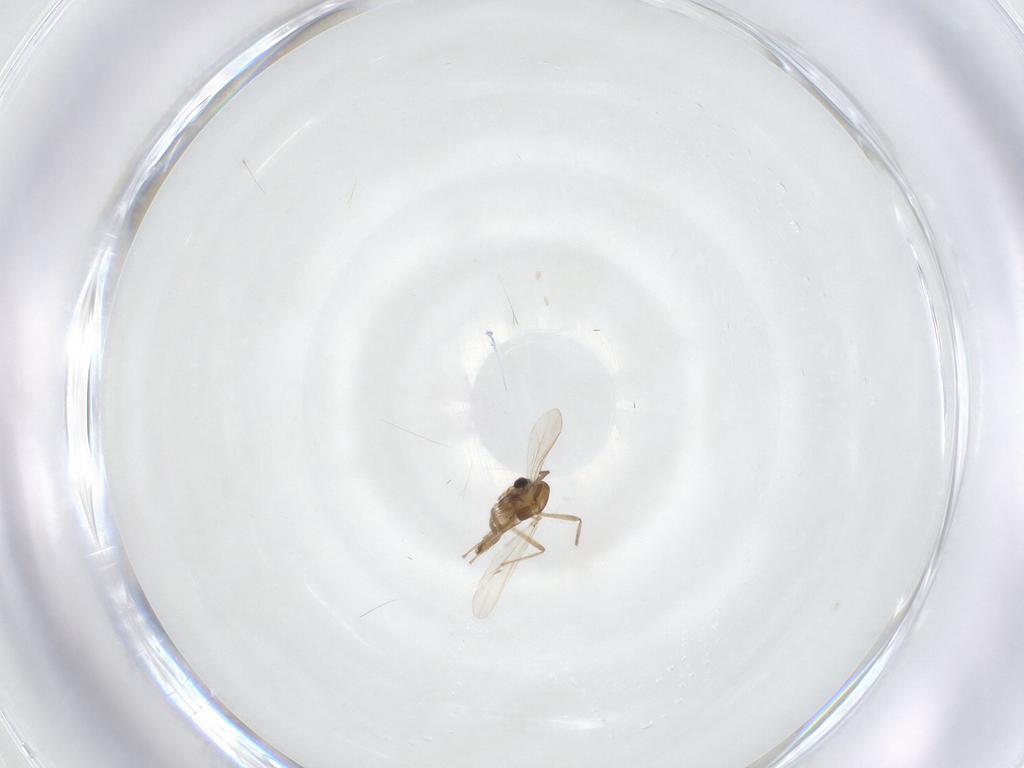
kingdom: Animalia
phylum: Arthropoda
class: Insecta
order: Diptera
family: Chironomidae
